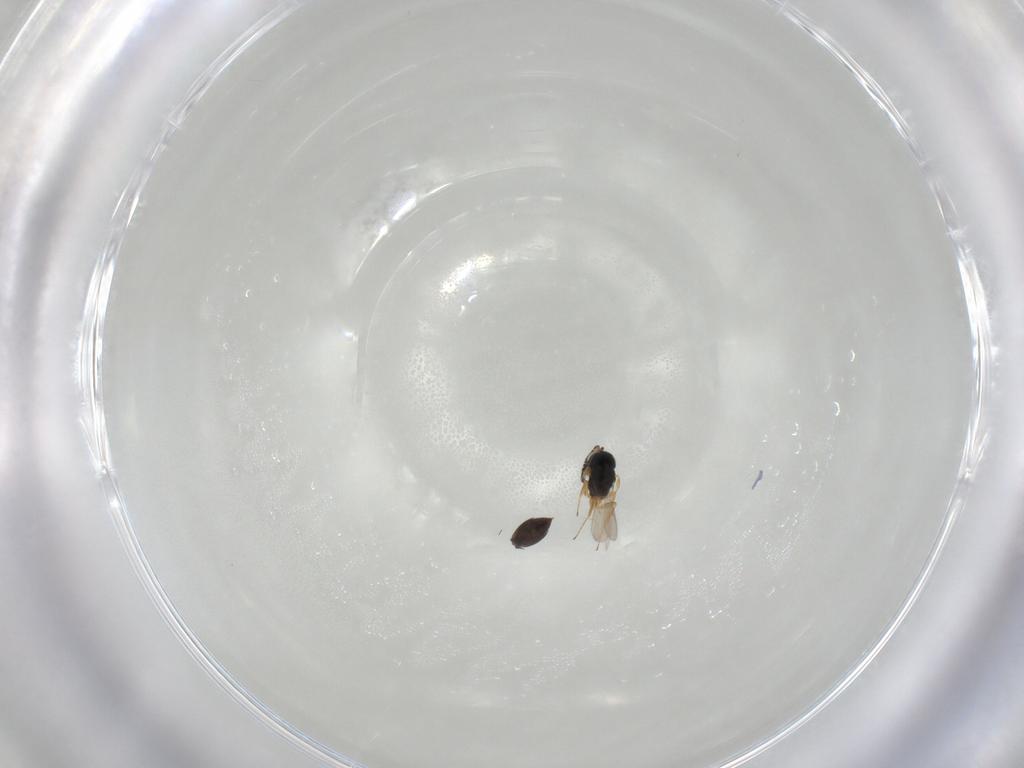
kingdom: Animalia
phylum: Arthropoda
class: Insecta
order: Hymenoptera
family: Scelionidae
